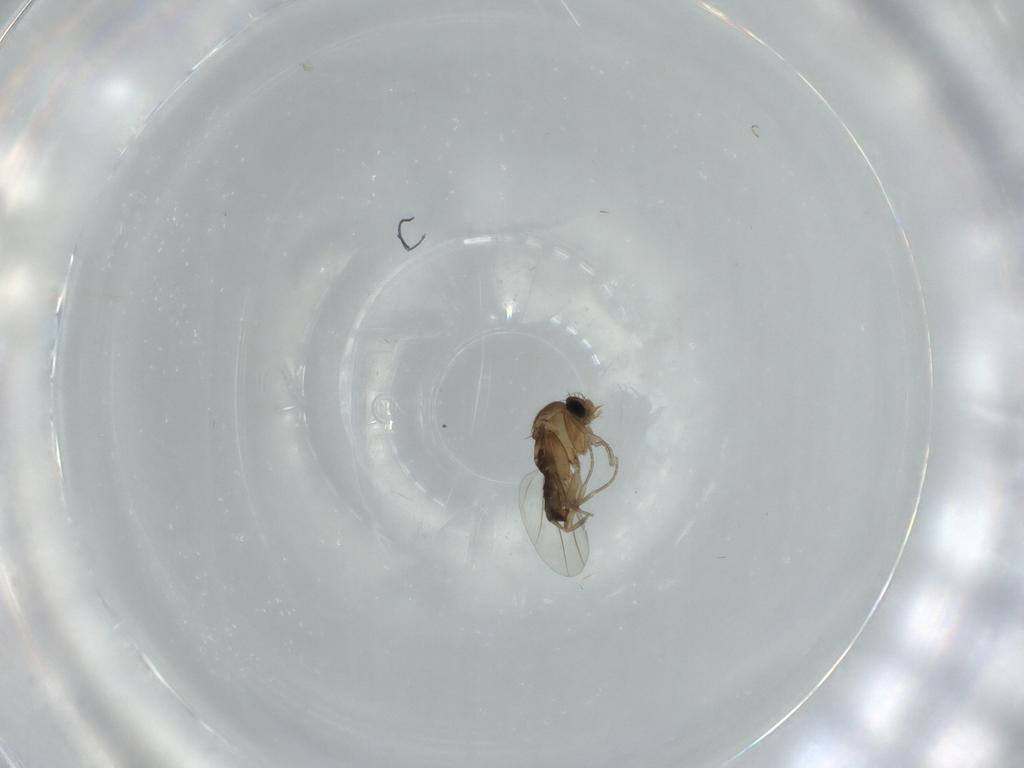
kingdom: Animalia
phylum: Arthropoda
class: Insecta
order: Diptera
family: Phoridae
